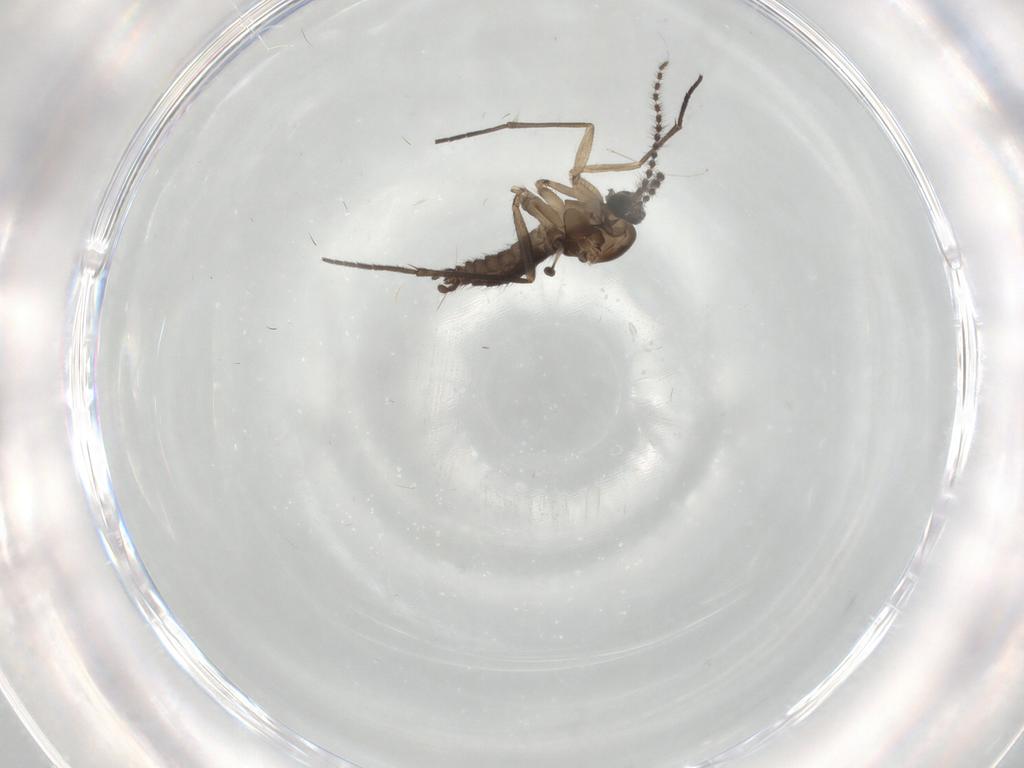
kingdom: Animalia
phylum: Arthropoda
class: Insecta
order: Diptera
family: Sciaridae
